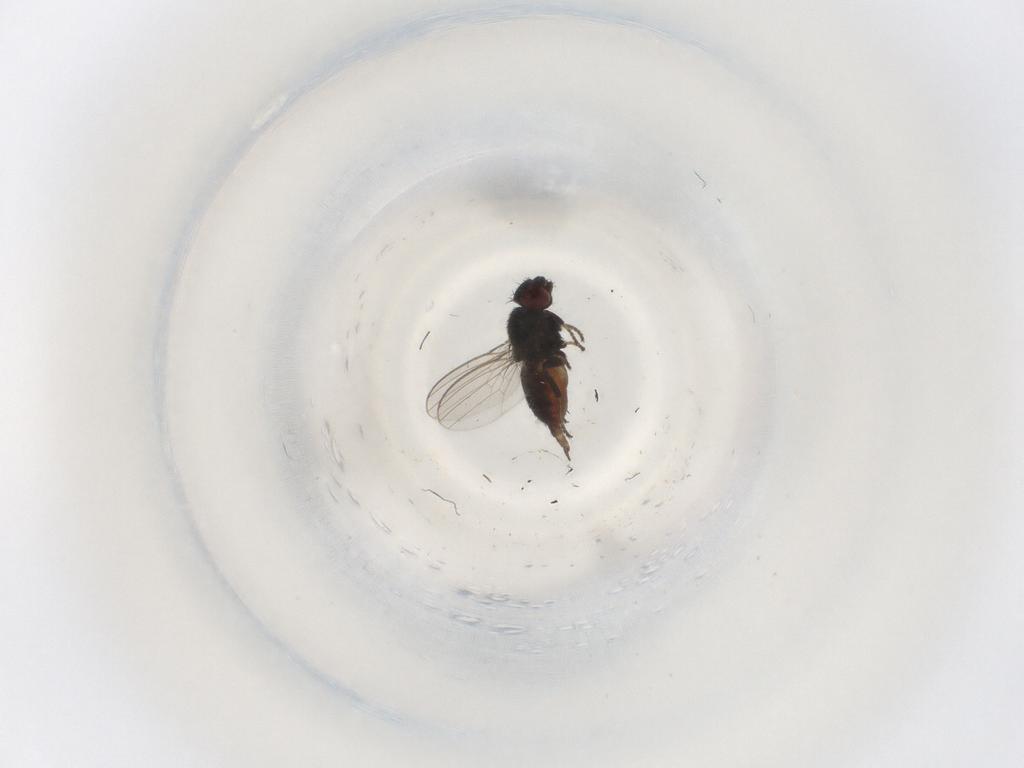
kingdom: Animalia
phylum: Arthropoda
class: Insecta
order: Diptera
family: Milichiidae
